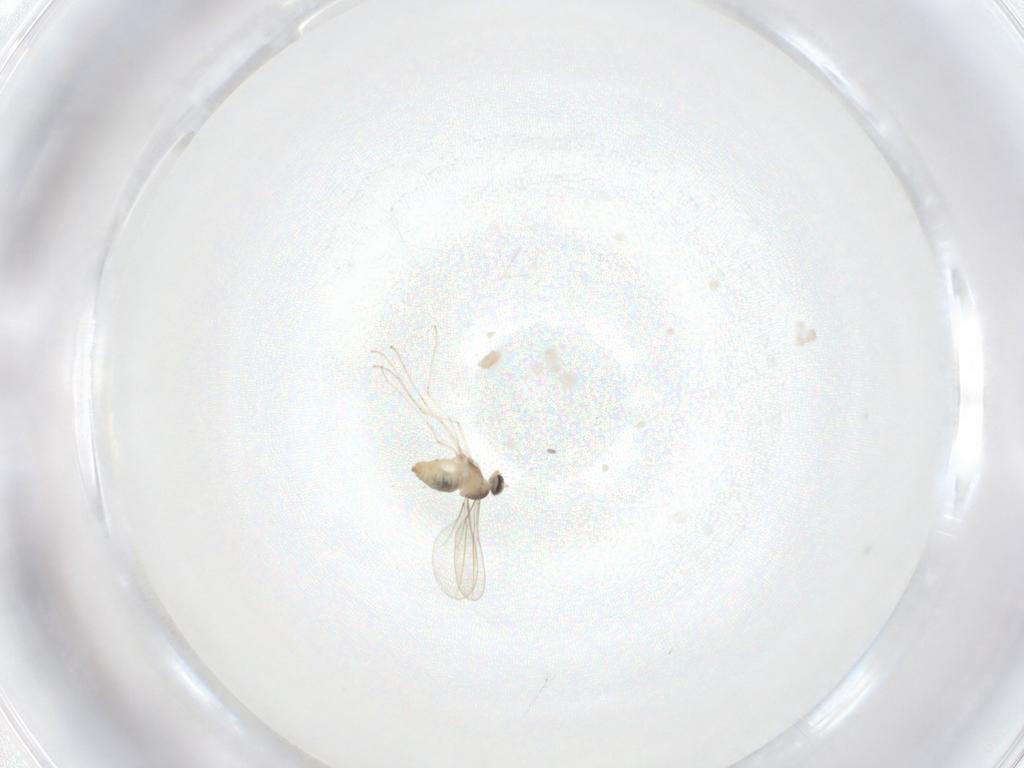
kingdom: Animalia
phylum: Arthropoda
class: Insecta
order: Diptera
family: Cecidomyiidae
